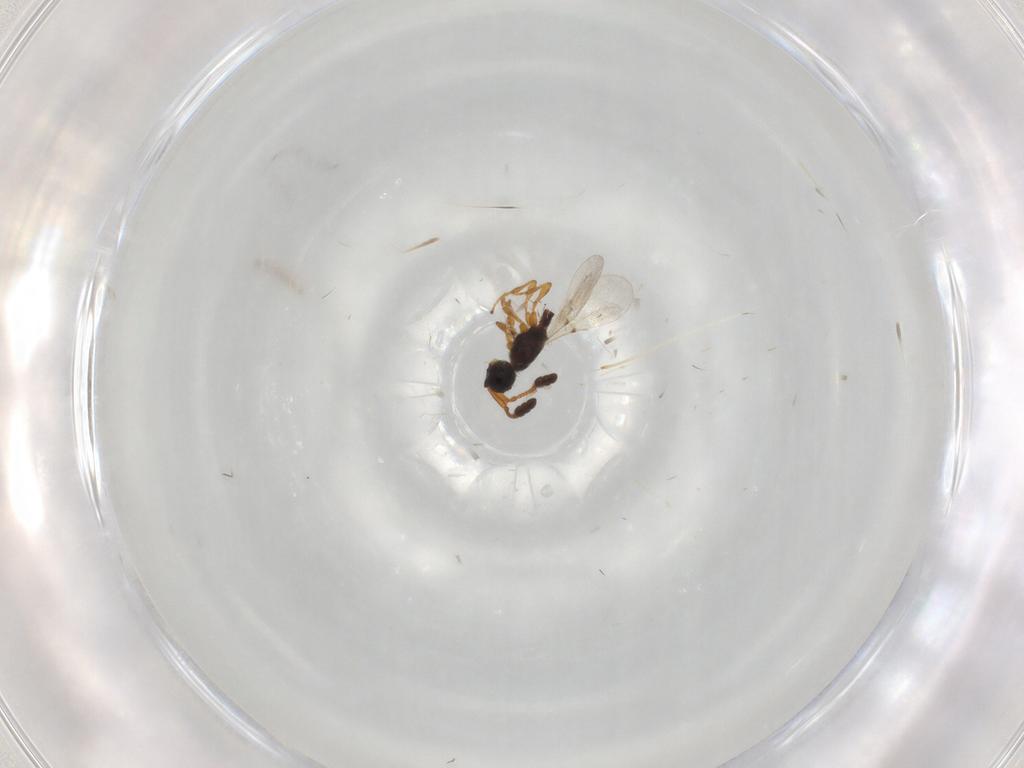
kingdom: Animalia
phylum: Arthropoda
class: Insecta
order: Hymenoptera
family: Diapriidae
